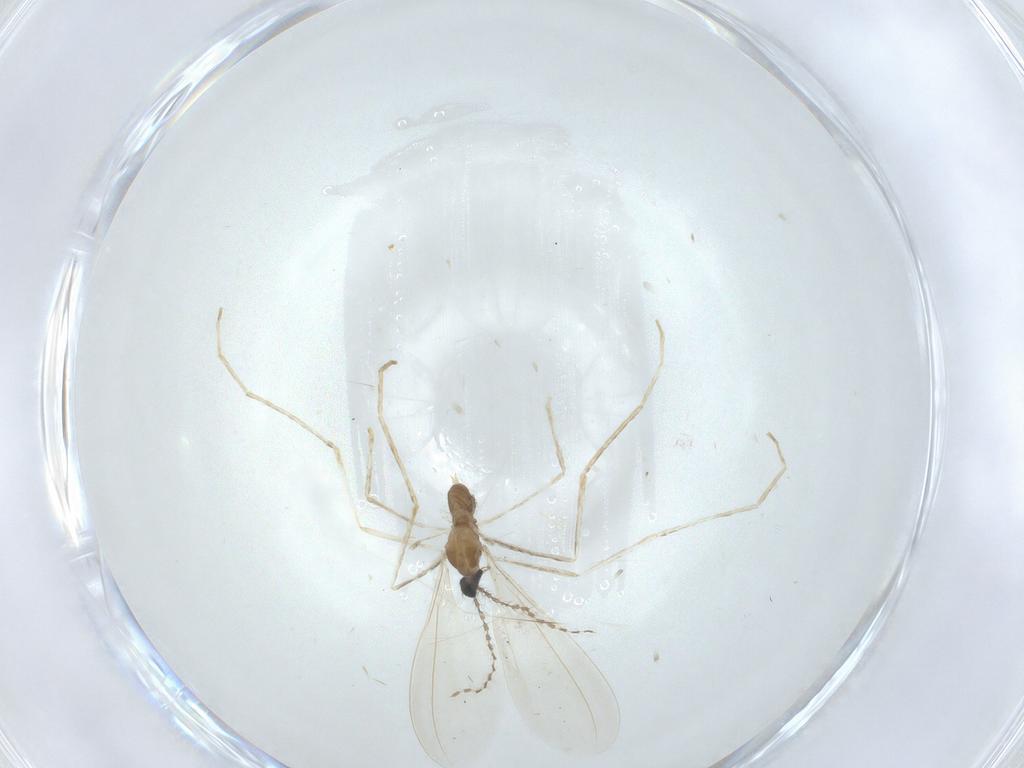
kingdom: Animalia
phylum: Arthropoda
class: Insecta
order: Diptera
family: Cecidomyiidae
